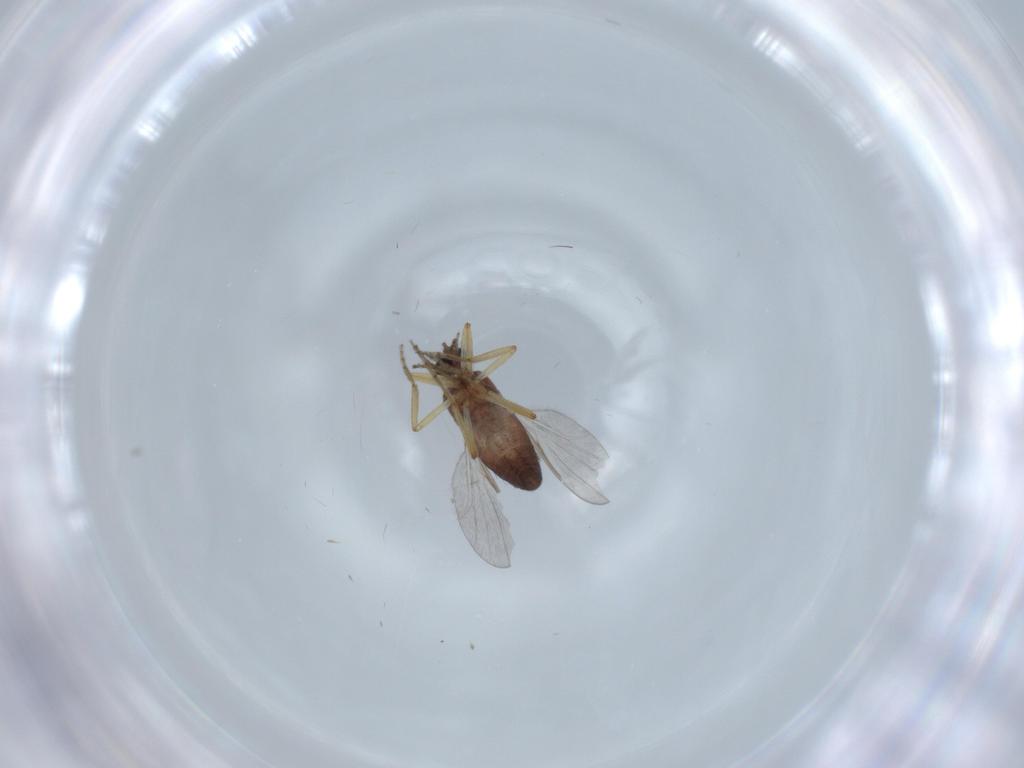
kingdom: Animalia
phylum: Arthropoda
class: Insecta
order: Diptera
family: Ceratopogonidae
